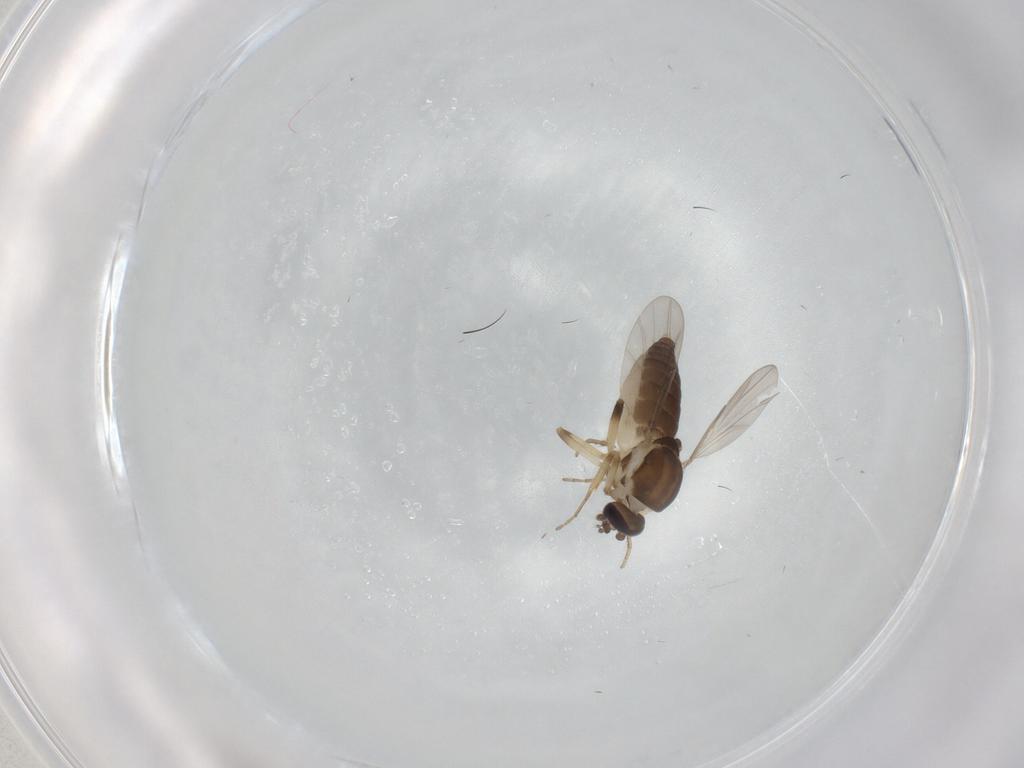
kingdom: Animalia
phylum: Arthropoda
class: Insecta
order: Diptera
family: Ceratopogonidae
